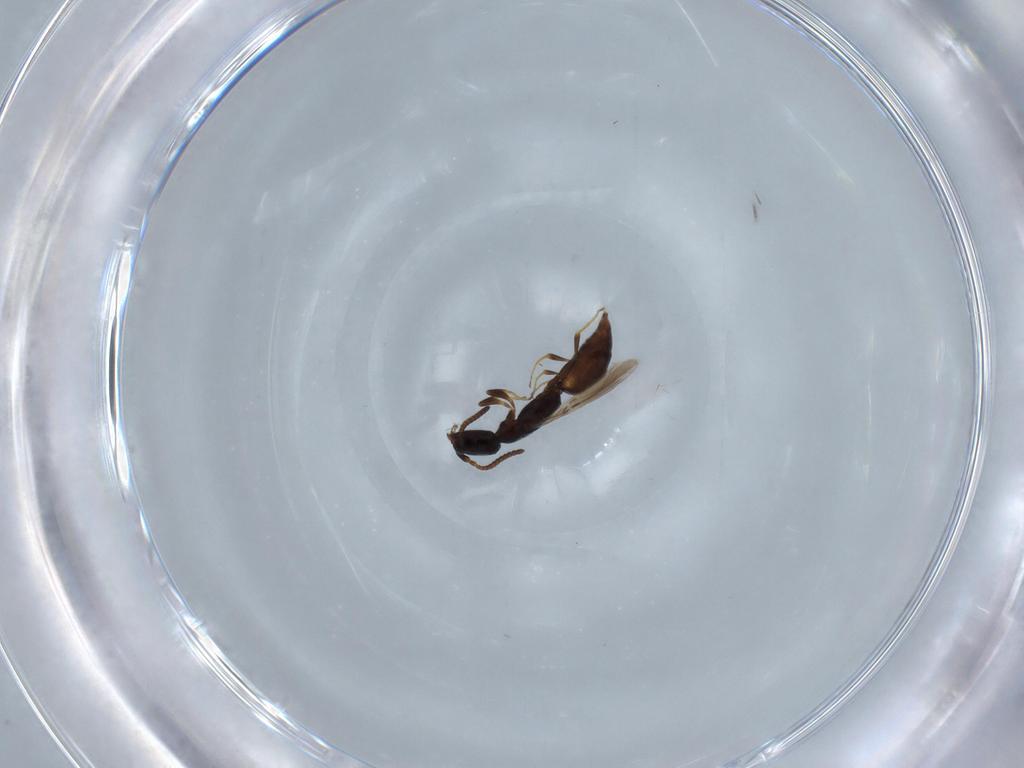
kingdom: Animalia
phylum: Arthropoda
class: Insecta
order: Hymenoptera
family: Bethylidae
